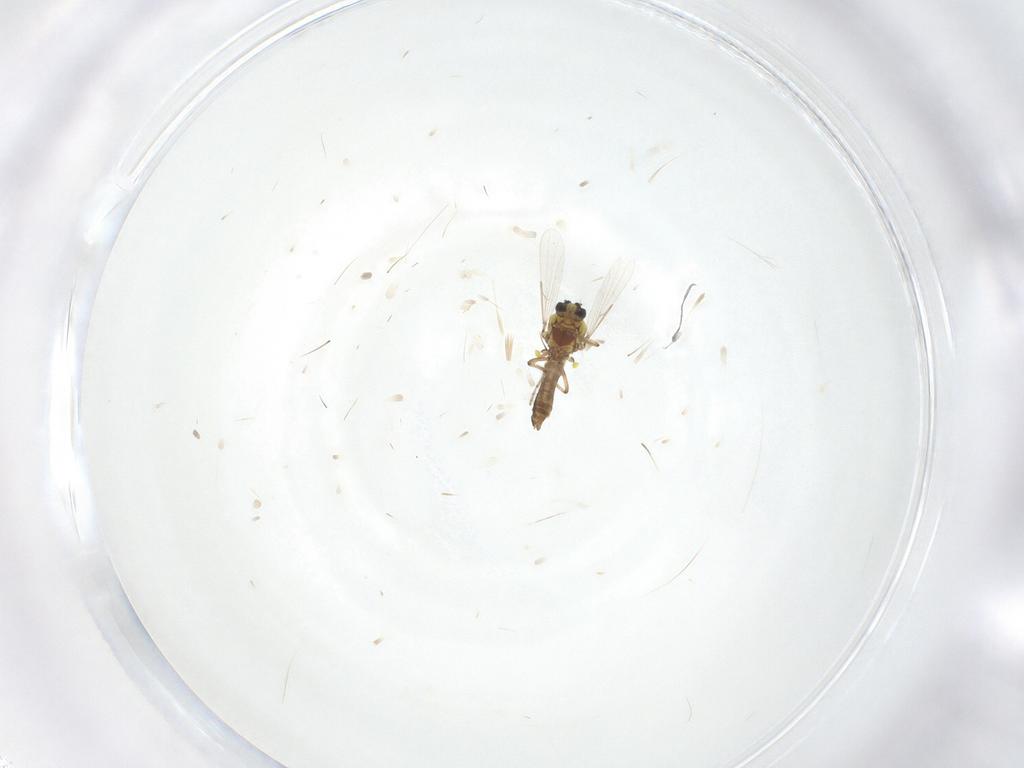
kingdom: Animalia
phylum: Arthropoda
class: Insecta
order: Diptera
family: Ceratopogonidae
